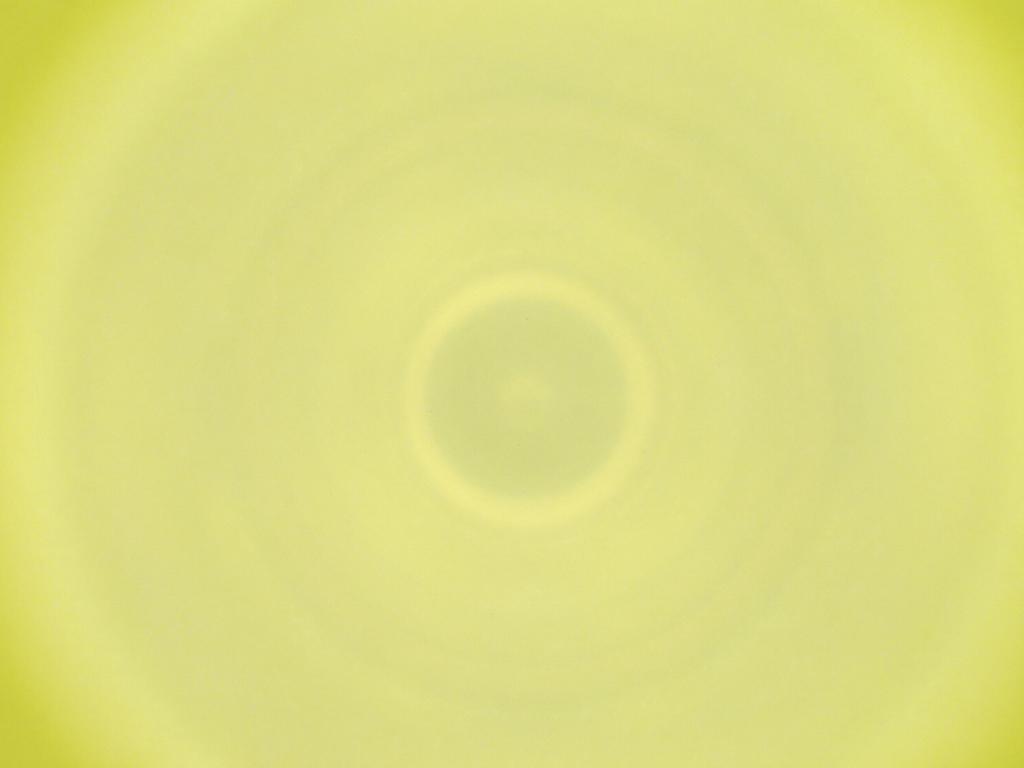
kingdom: Animalia
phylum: Arthropoda
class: Insecta
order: Diptera
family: Cecidomyiidae
